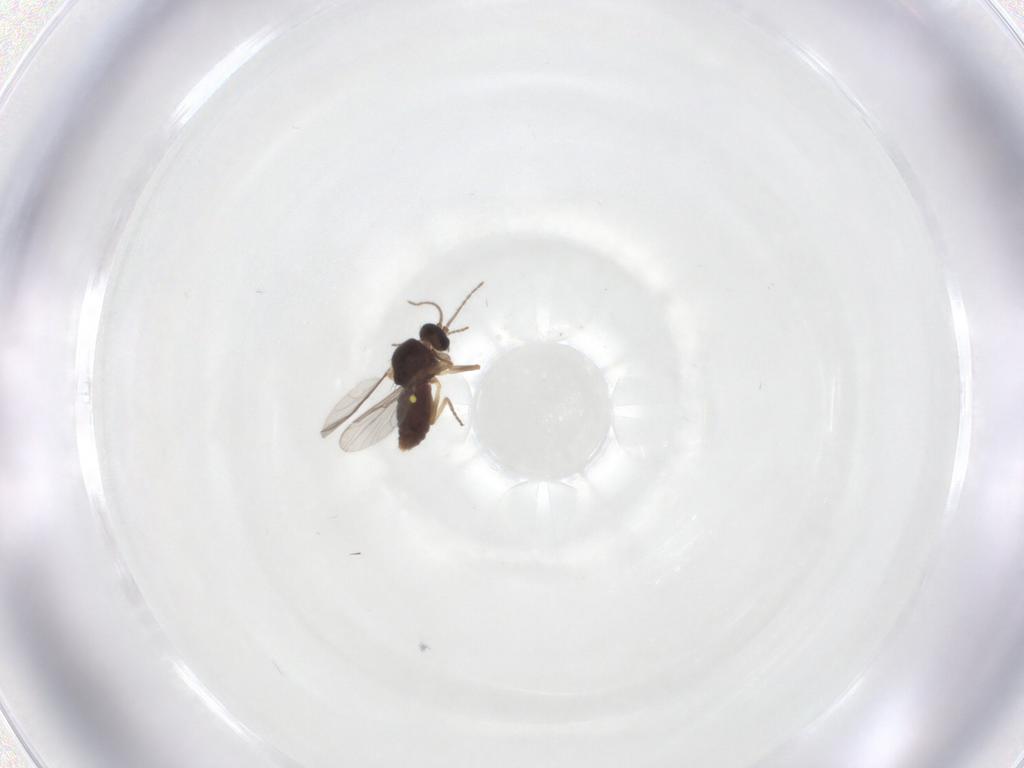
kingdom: Animalia
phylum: Arthropoda
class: Insecta
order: Diptera
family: Ceratopogonidae
